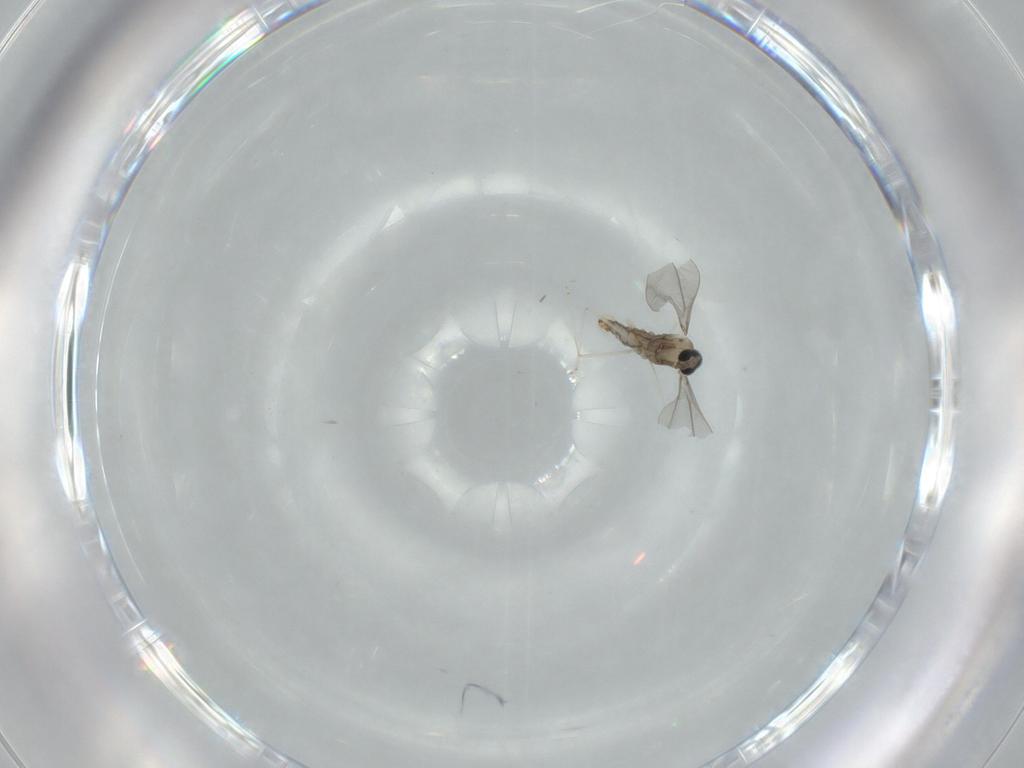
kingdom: Animalia
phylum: Arthropoda
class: Insecta
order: Diptera
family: Cecidomyiidae
